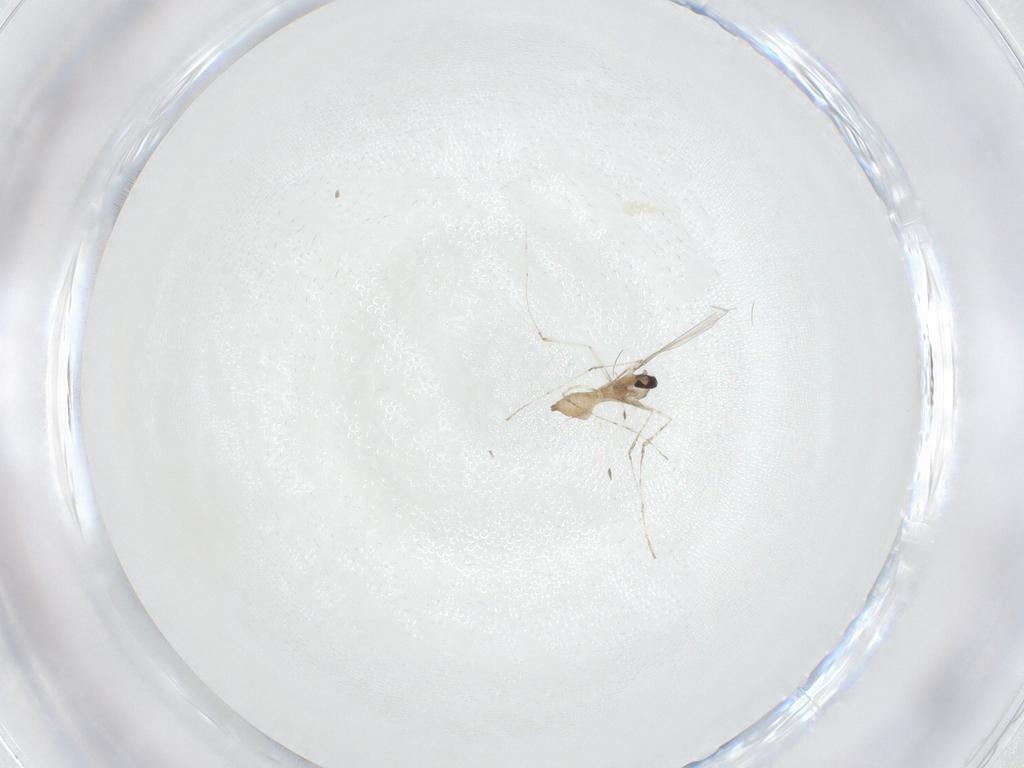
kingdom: Animalia
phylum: Arthropoda
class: Insecta
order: Diptera
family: Cecidomyiidae
